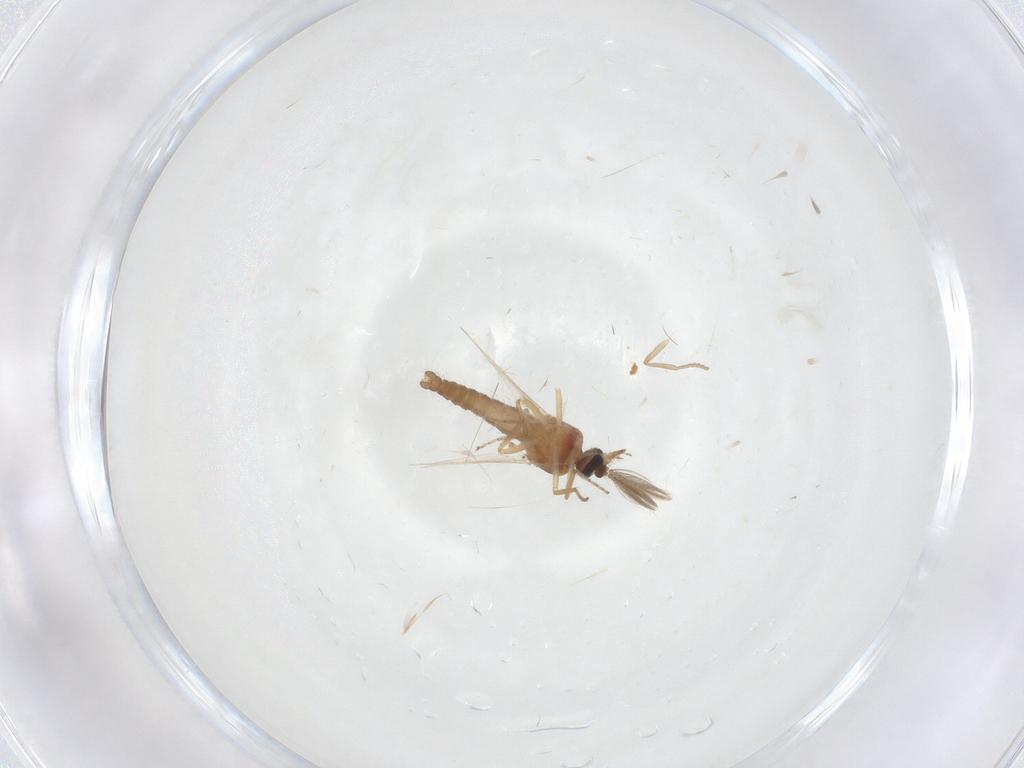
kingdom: Animalia
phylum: Arthropoda
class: Insecta
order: Diptera
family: Ceratopogonidae
